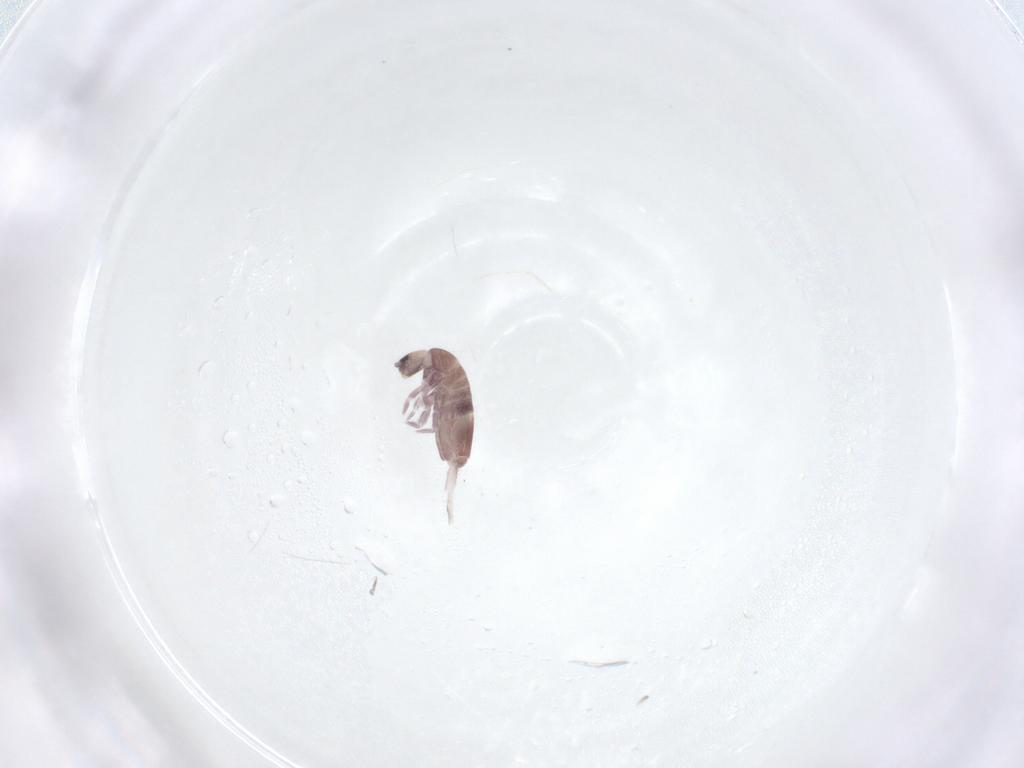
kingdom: Animalia
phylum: Arthropoda
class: Collembola
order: Entomobryomorpha
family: Entomobryidae
